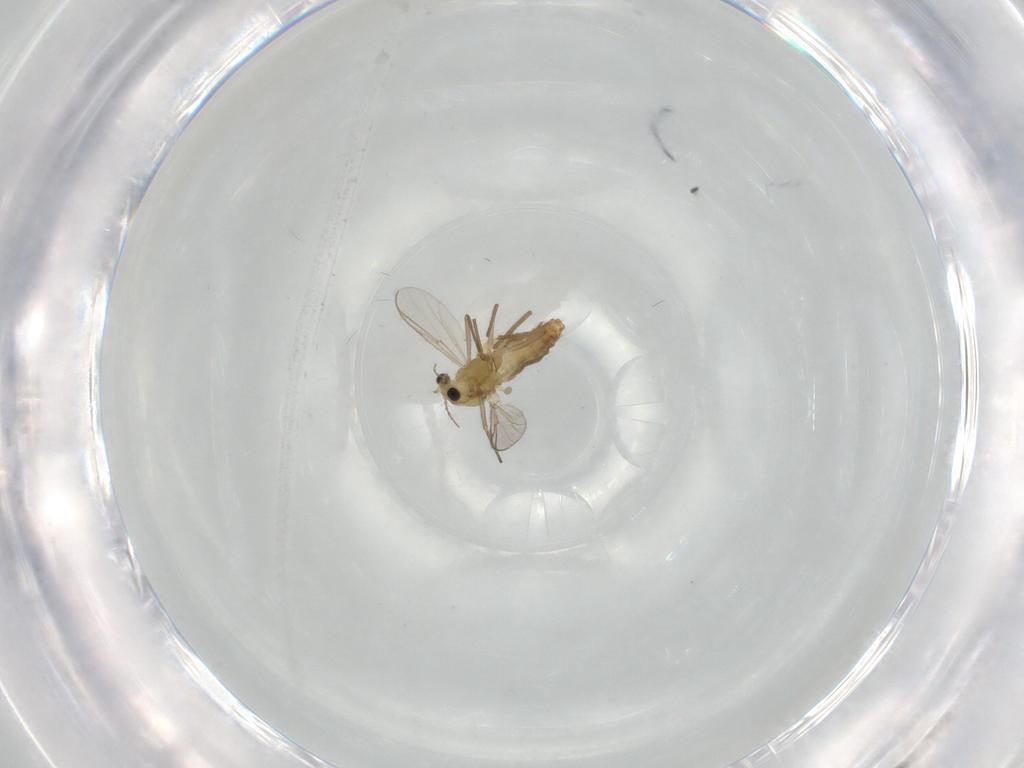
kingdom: Animalia
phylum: Arthropoda
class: Insecta
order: Diptera
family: Chironomidae
